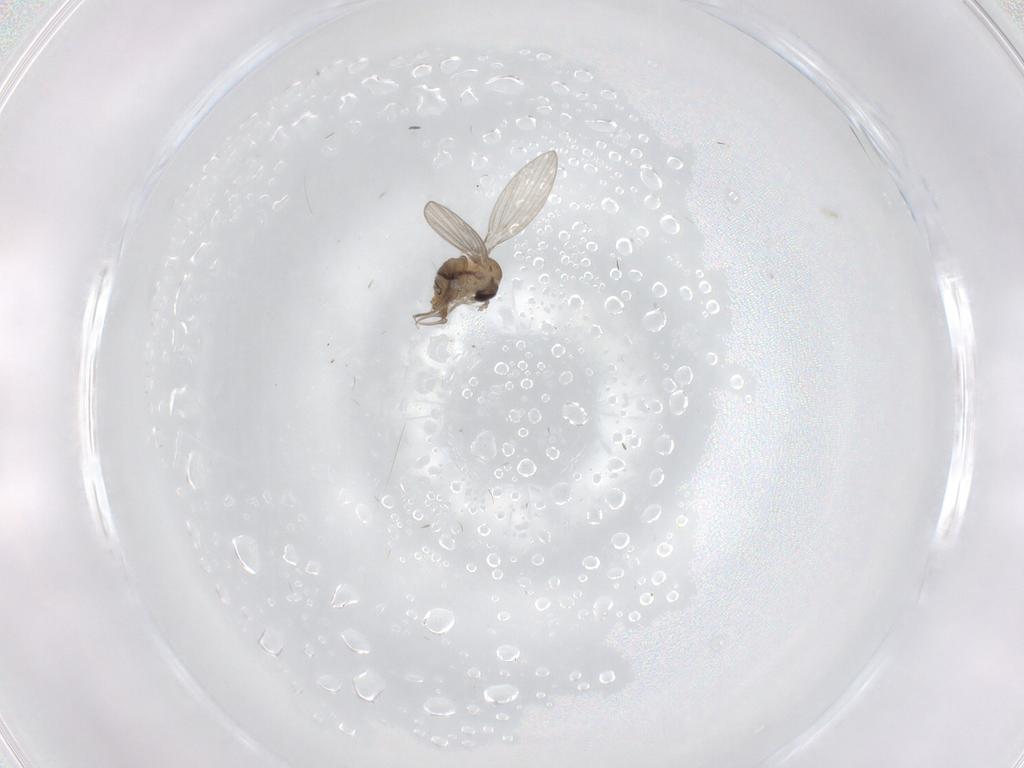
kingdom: Animalia
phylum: Arthropoda
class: Insecta
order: Diptera
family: Psychodidae
